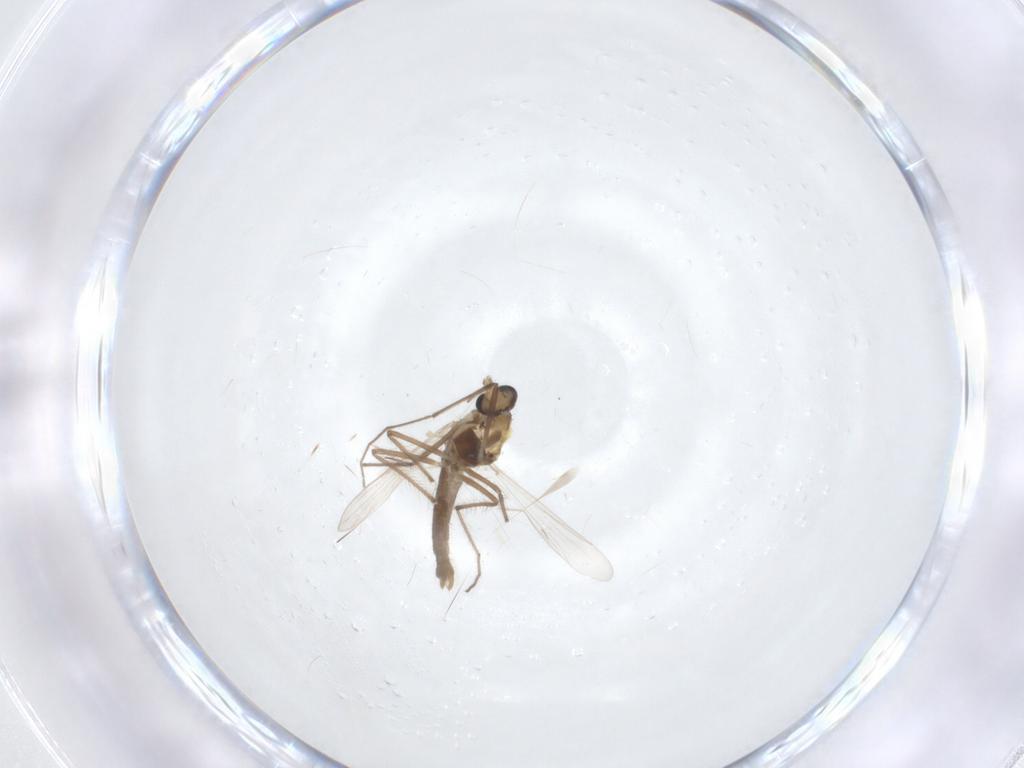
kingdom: Animalia
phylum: Arthropoda
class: Insecta
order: Diptera
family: Chironomidae
